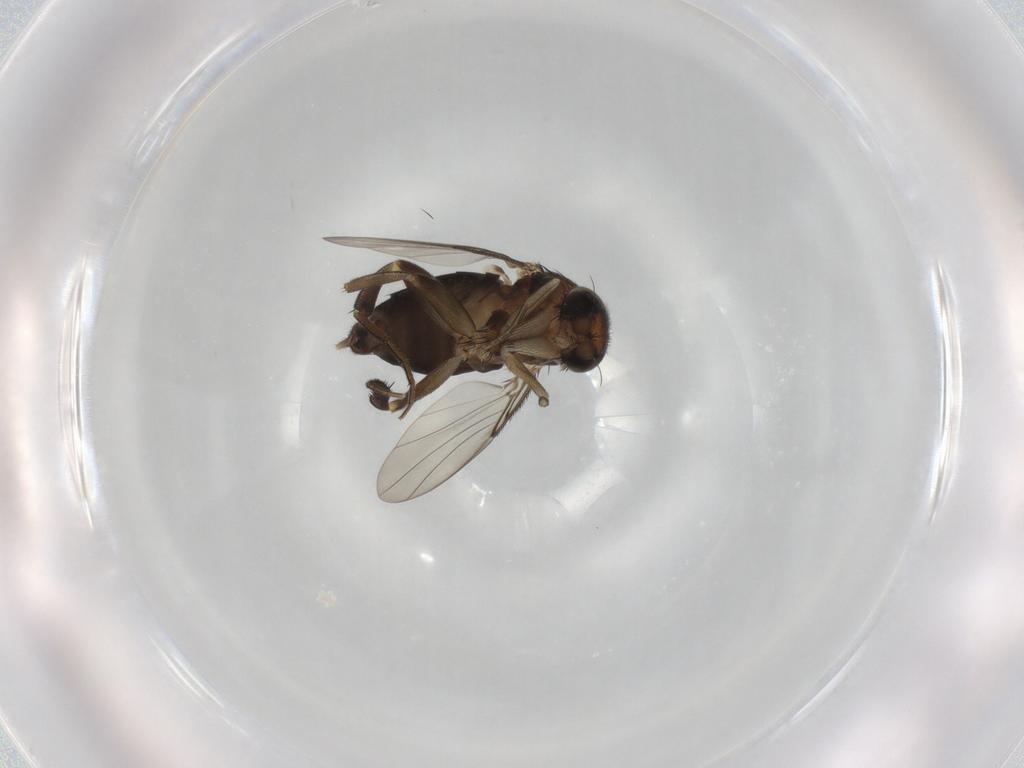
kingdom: Animalia
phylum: Arthropoda
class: Insecta
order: Diptera
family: Phoridae
